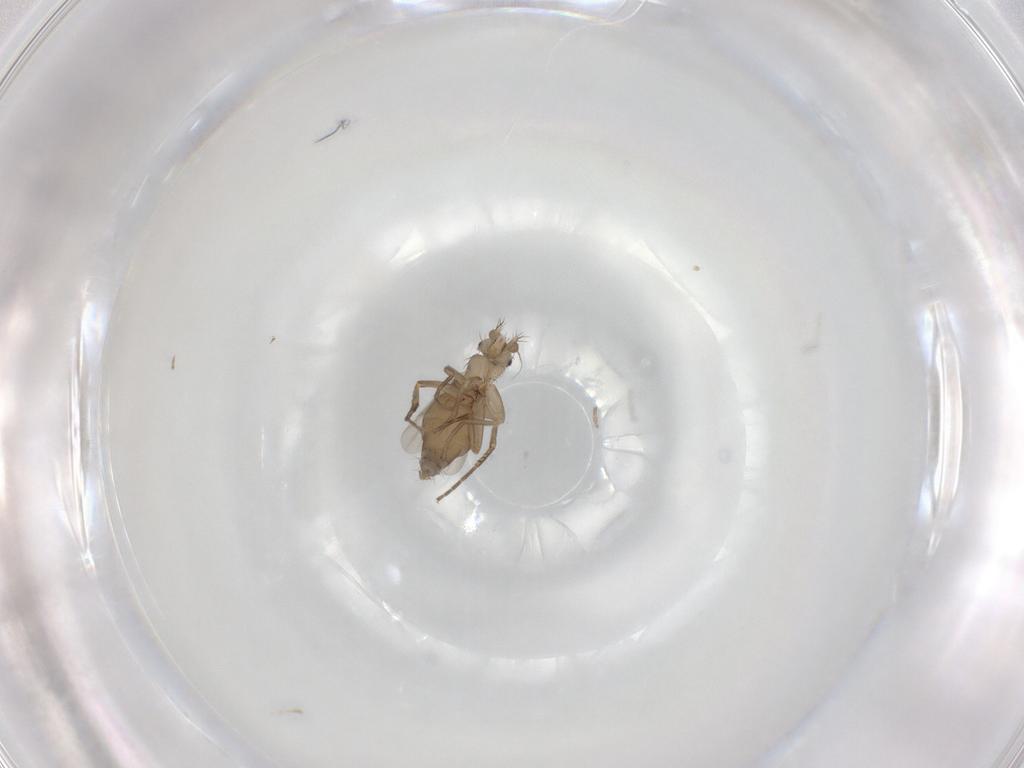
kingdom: Animalia
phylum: Arthropoda
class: Insecta
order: Diptera
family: Phoridae
